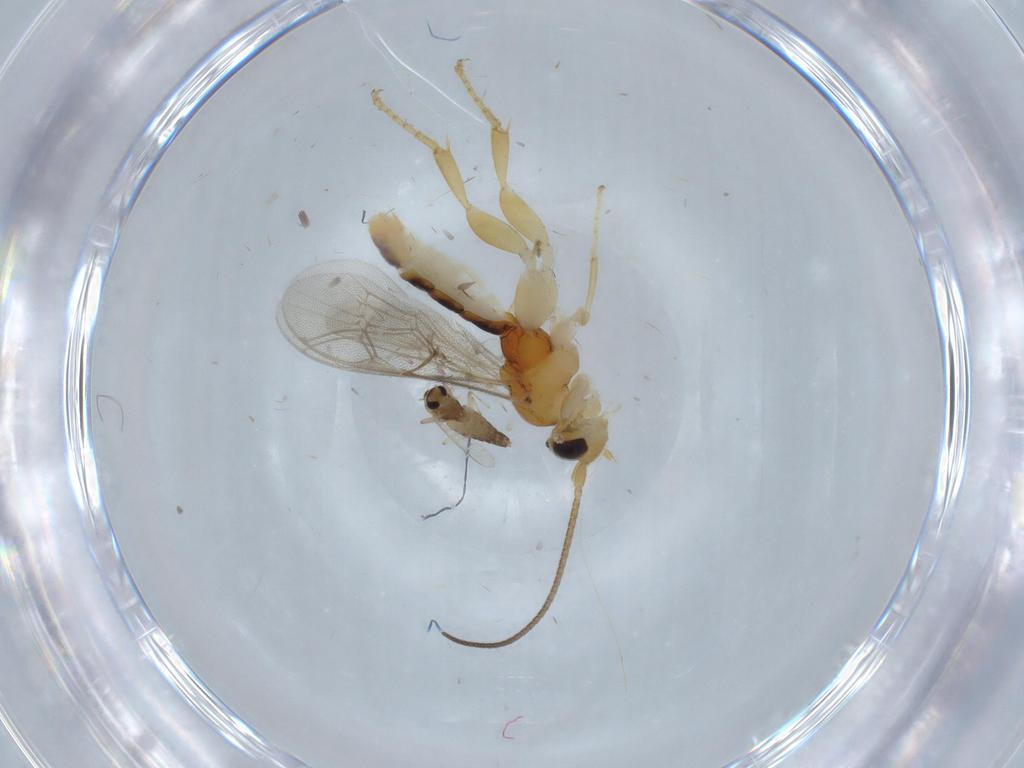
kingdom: Animalia
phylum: Arthropoda
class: Insecta
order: Hymenoptera
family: Ichneumonidae
